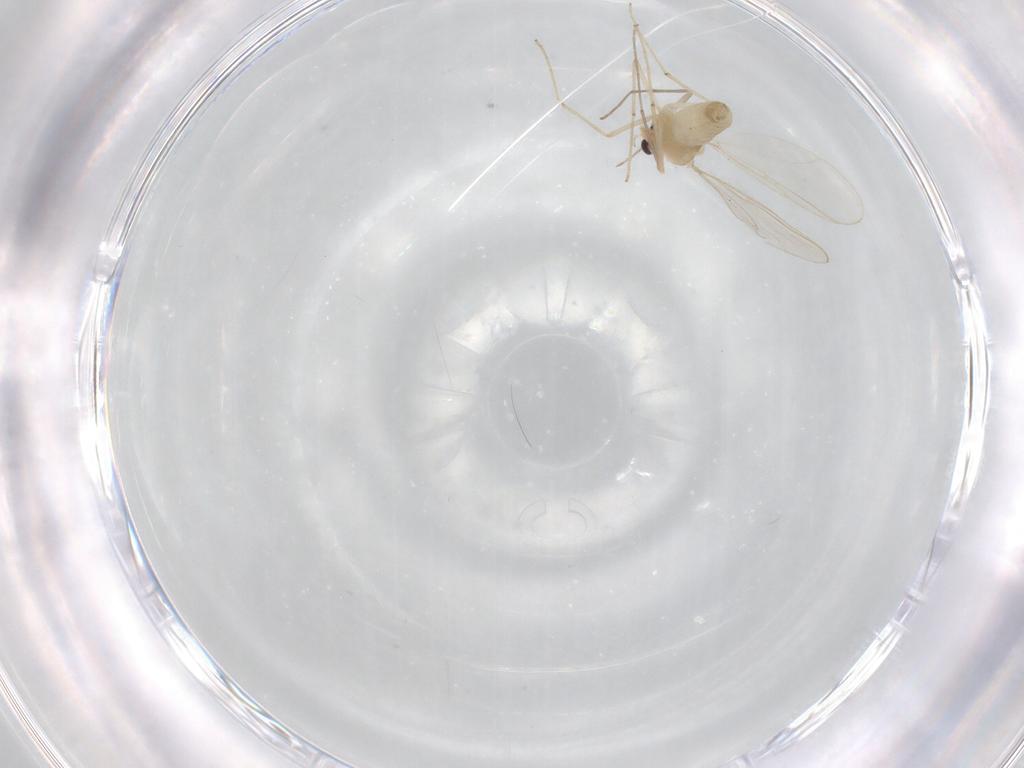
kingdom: Animalia
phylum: Arthropoda
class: Insecta
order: Diptera
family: Chironomidae
